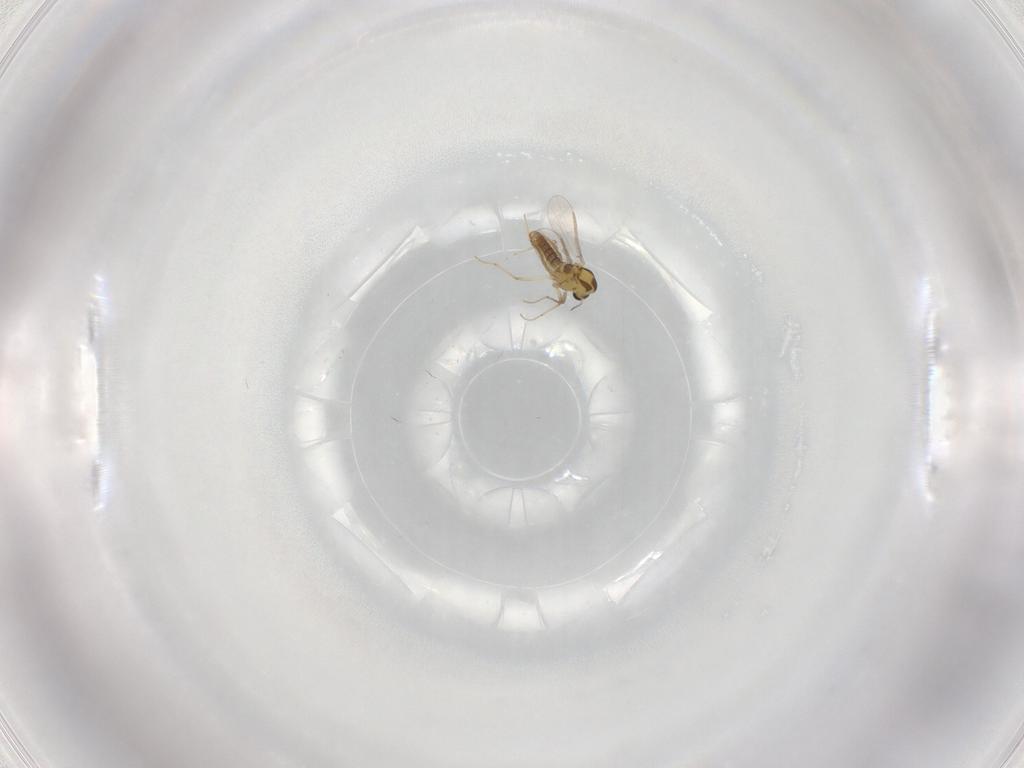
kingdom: Animalia
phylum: Arthropoda
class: Insecta
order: Diptera
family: Chironomidae
